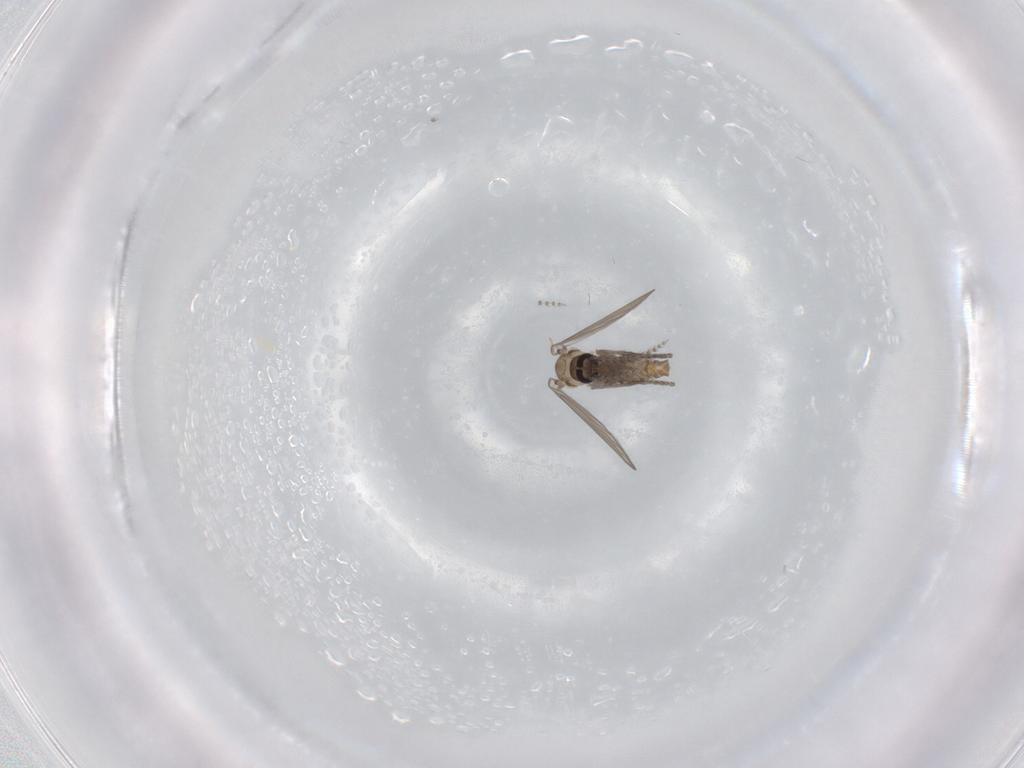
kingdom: Animalia
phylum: Arthropoda
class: Insecta
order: Diptera
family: Psychodidae
